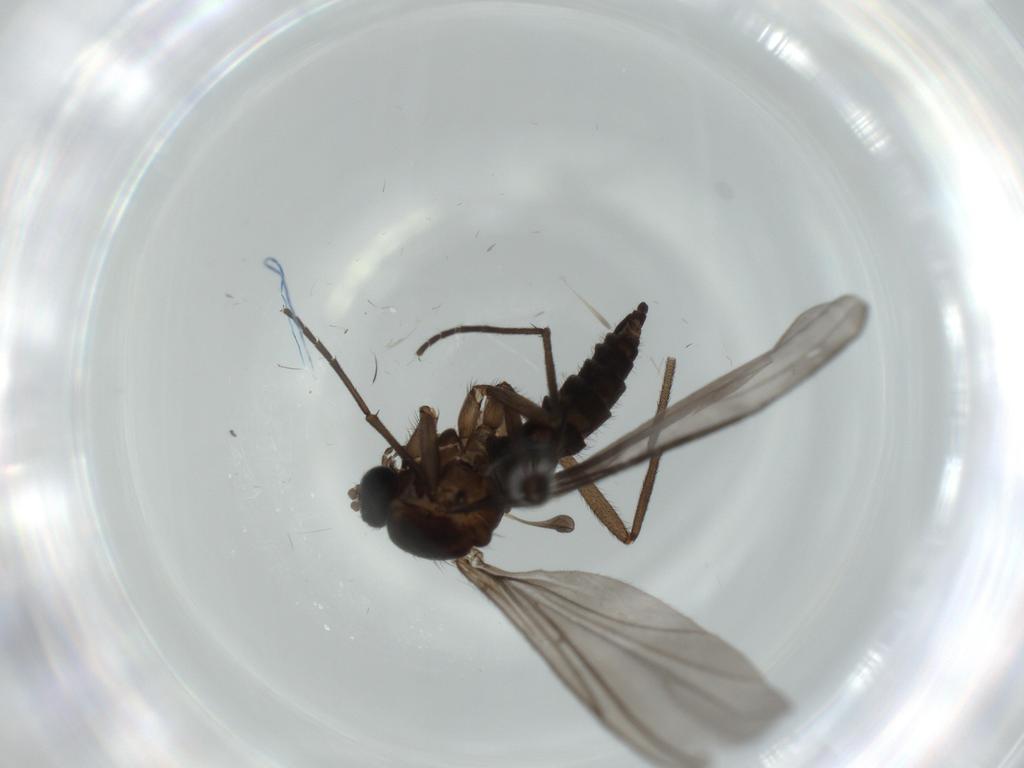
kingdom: Animalia
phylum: Arthropoda
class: Insecta
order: Diptera
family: Sciaridae
